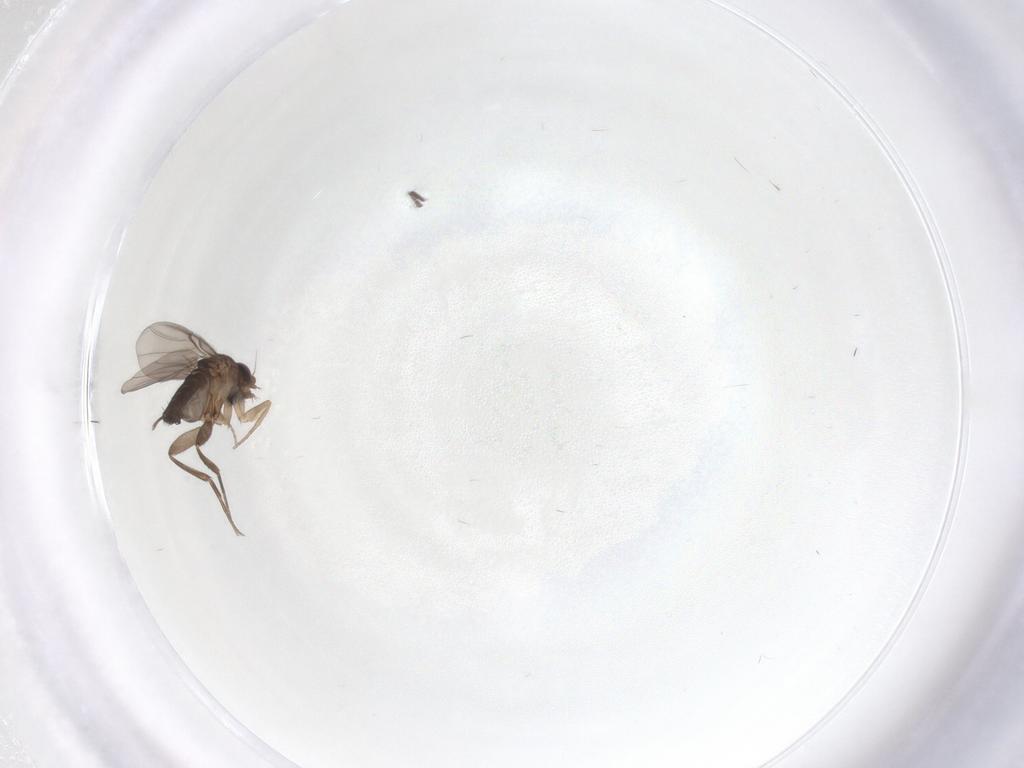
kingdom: Animalia
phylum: Arthropoda
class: Insecta
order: Diptera
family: Phoridae
